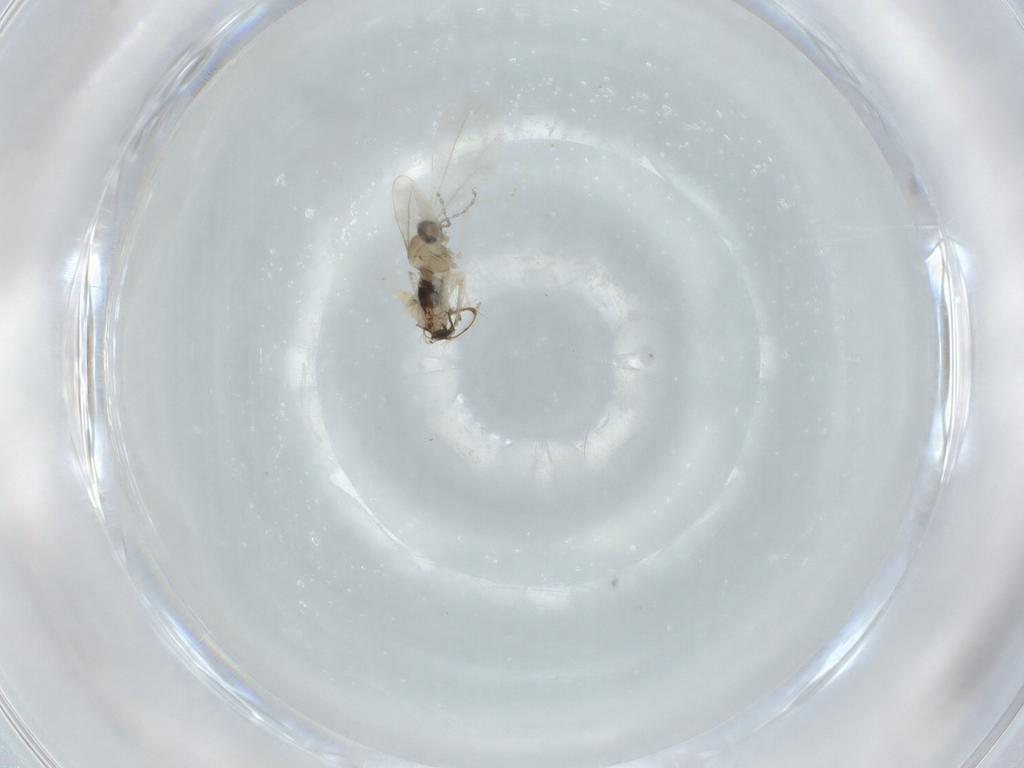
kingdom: Animalia
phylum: Arthropoda
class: Insecta
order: Diptera
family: Cecidomyiidae
